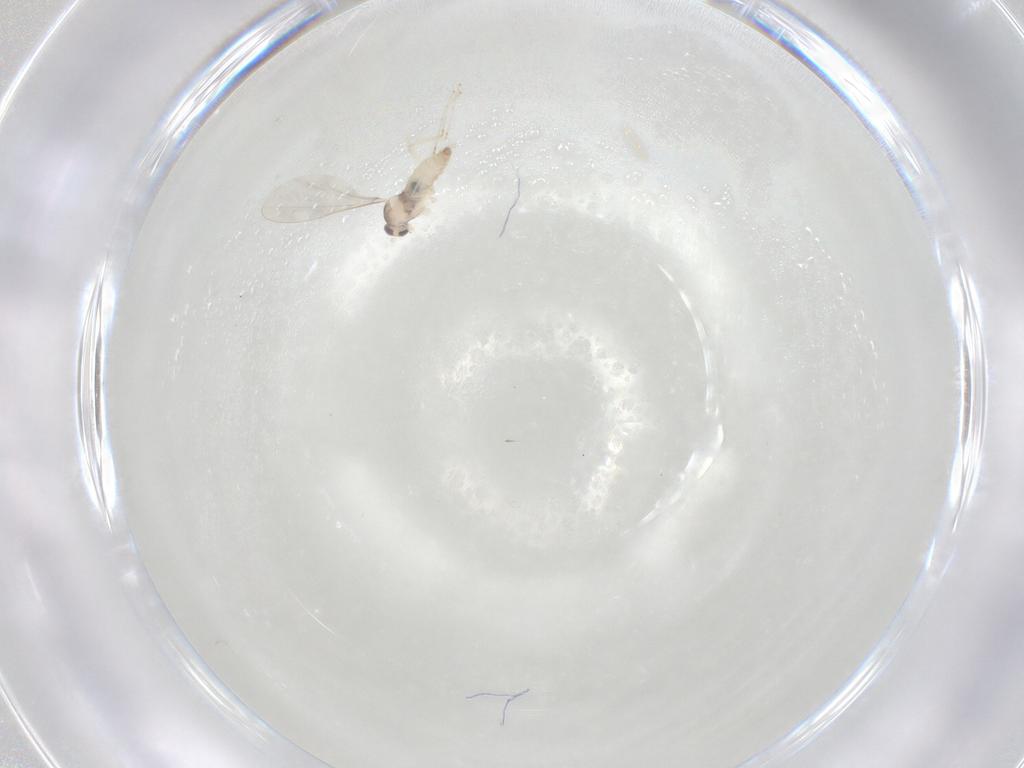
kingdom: Animalia
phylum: Arthropoda
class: Insecta
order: Diptera
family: Cecidomyiidae
